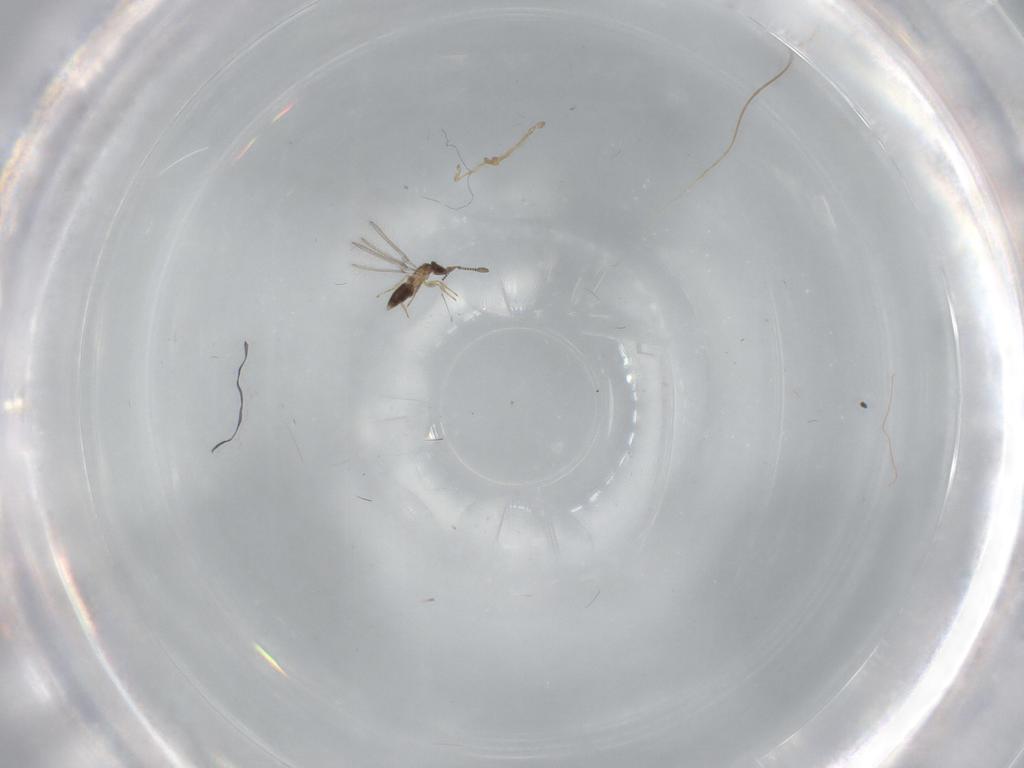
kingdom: Animalia
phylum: Arthropoda
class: Insecta
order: Hymenoptera
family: Mymaridae
